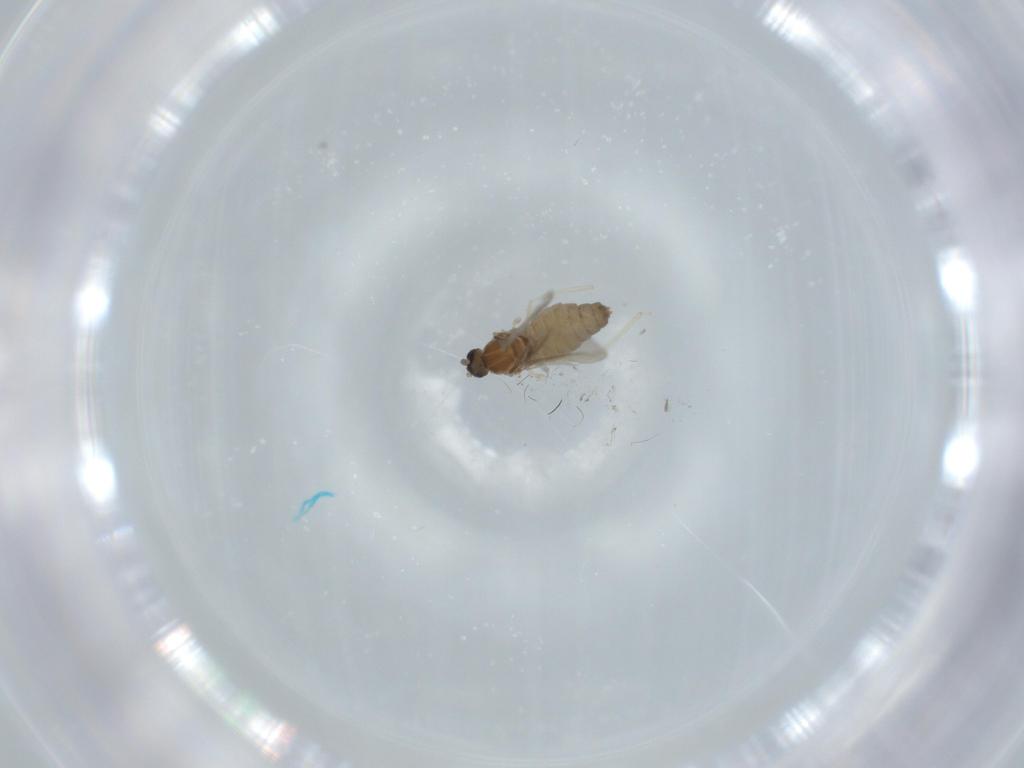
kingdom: Animalia
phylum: Arthropoda
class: Insecta
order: Diptera
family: Cecidomyiidae
